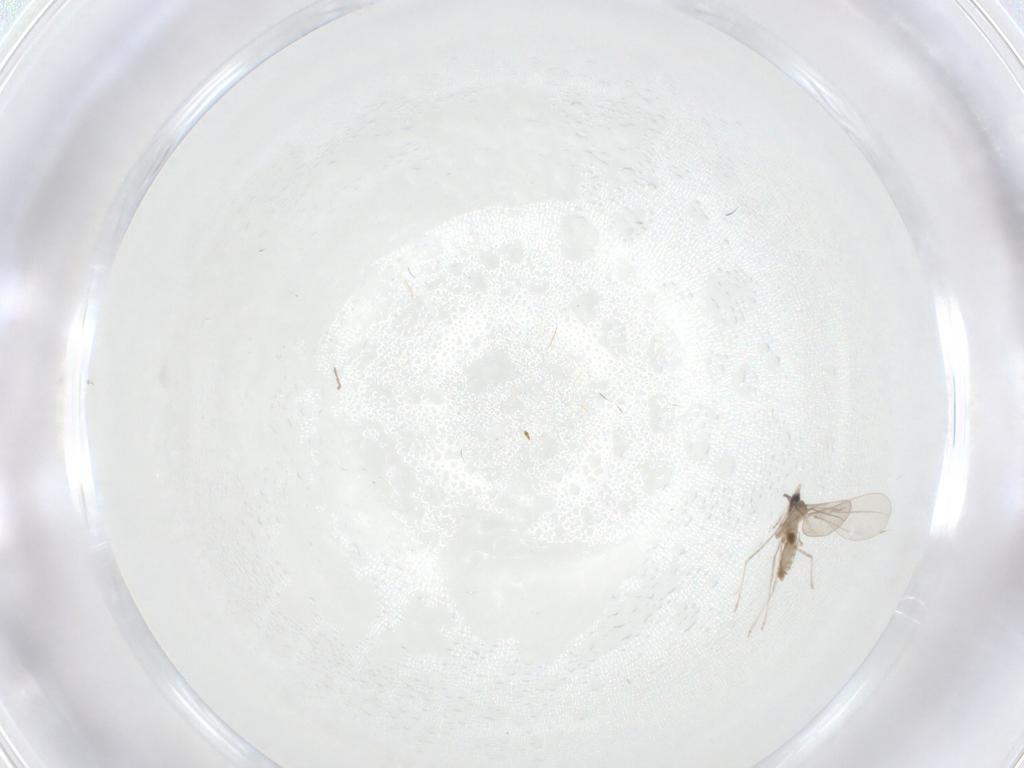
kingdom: Animalia
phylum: Arthropoda
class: Insecta
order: Diptera
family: Cecidomyiidae
